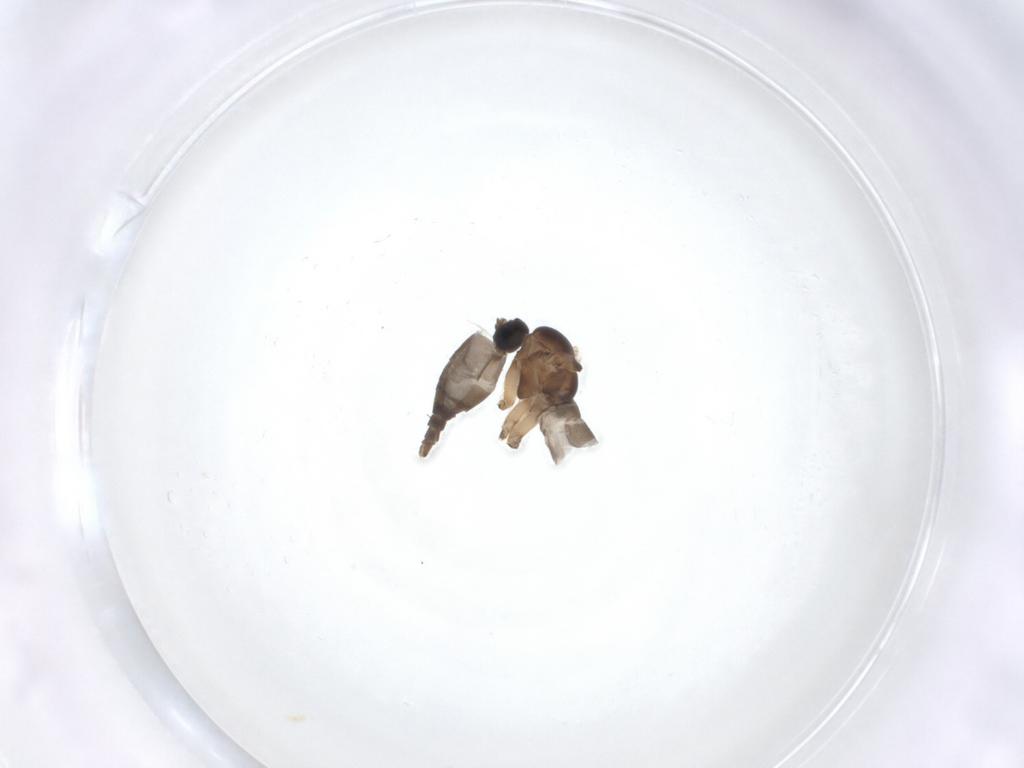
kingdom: Animalia
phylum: Arthropoda
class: Insecta
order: Diptera
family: Sciaridae
